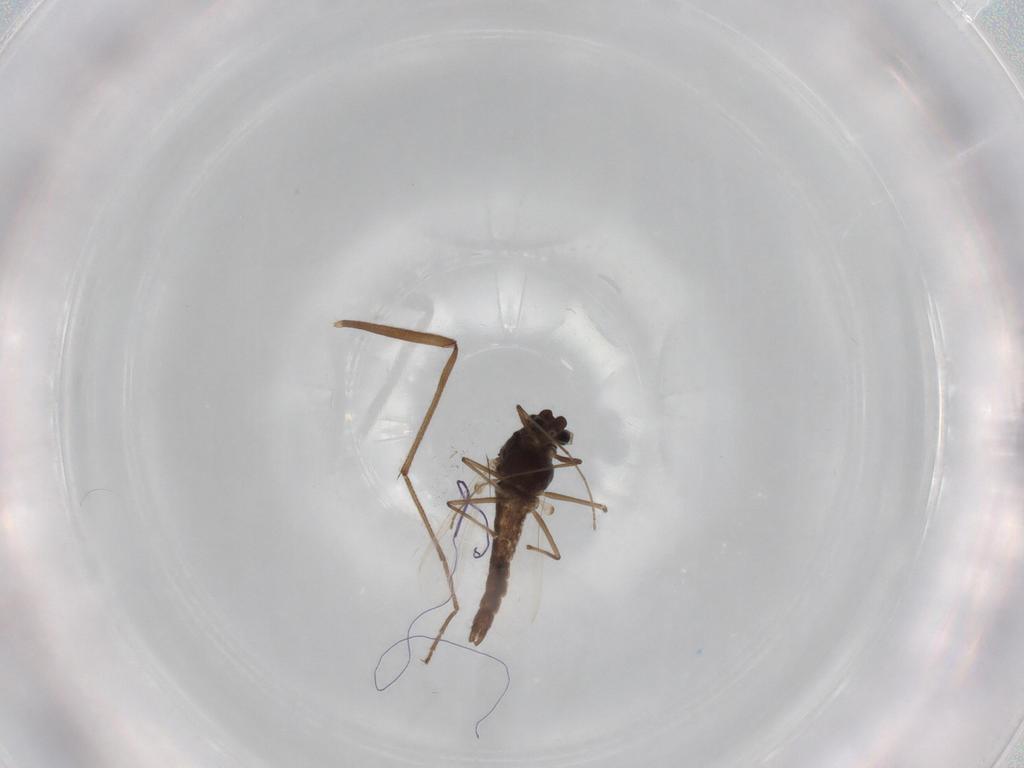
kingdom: Animalia
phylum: Arthropoda
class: Insecta
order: Diptera
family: Chironomidae
